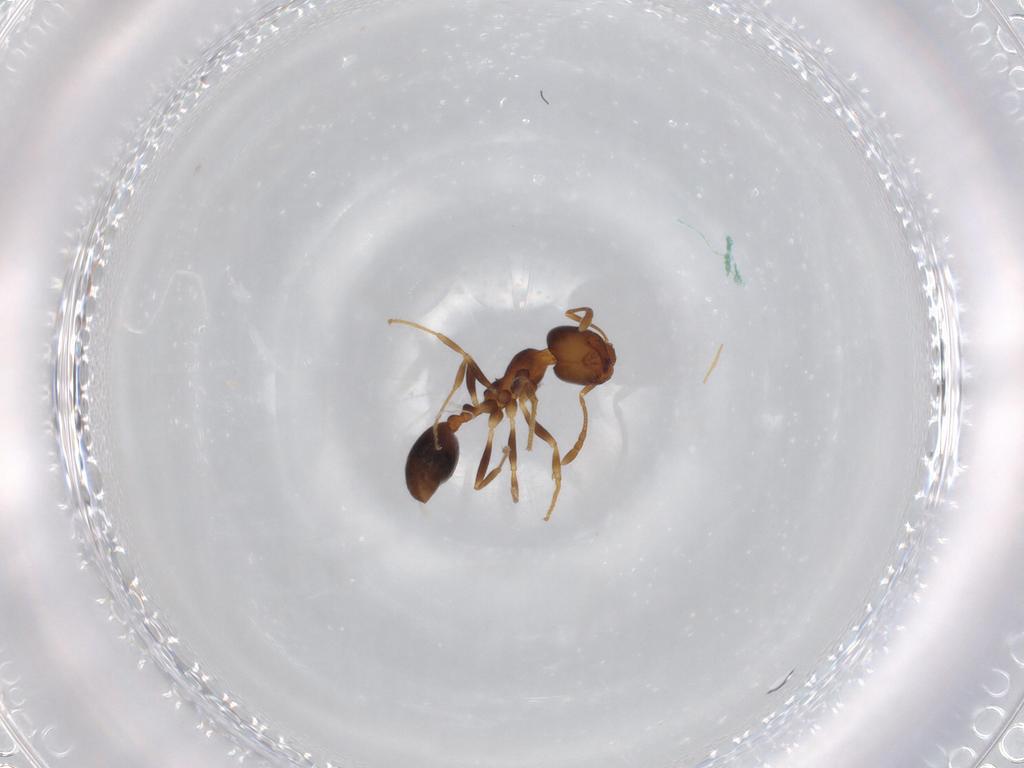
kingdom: Animalia
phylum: Arthropoda
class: Insecta
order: Hymenoptera
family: Formicidae
